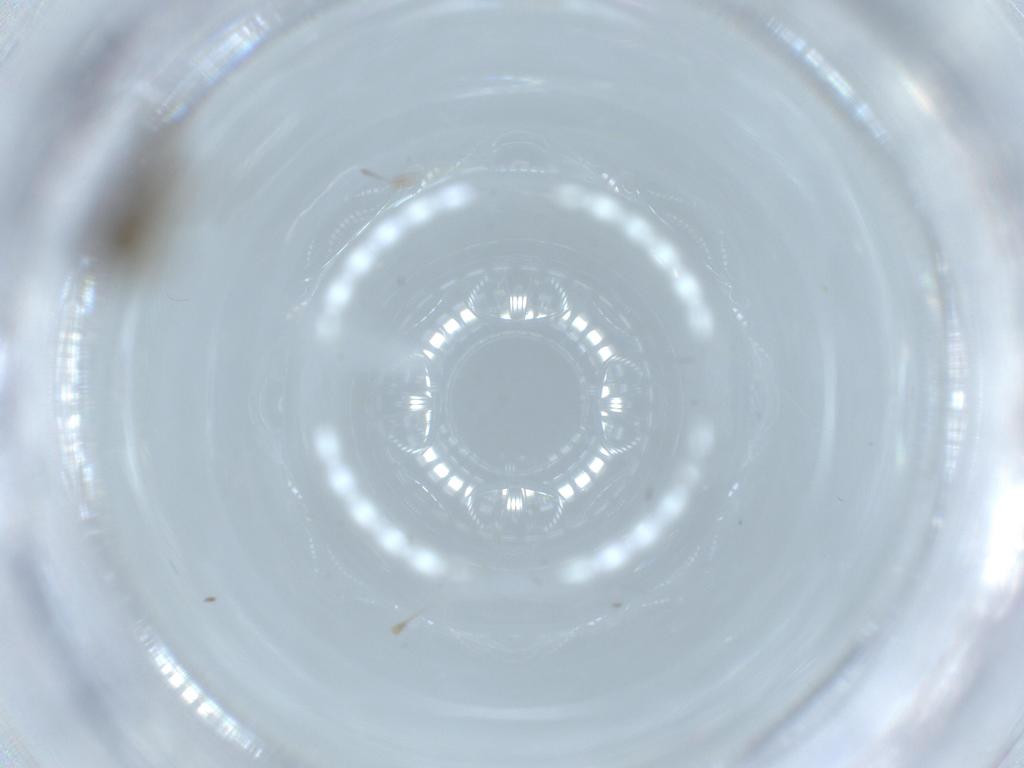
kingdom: Animalia
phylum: Arthropoda
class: Insecta
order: Diptera
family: Chironomidae
